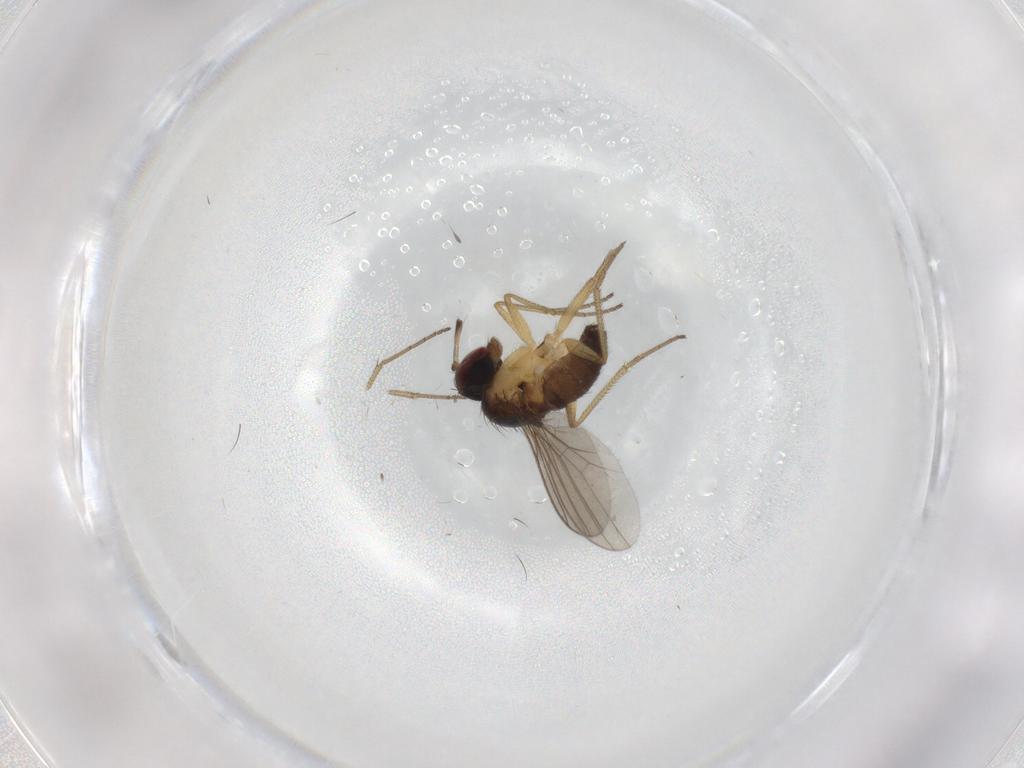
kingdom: Animalia
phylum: Arthropoda
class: Insecta
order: Diptera
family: Dolichopodidae
